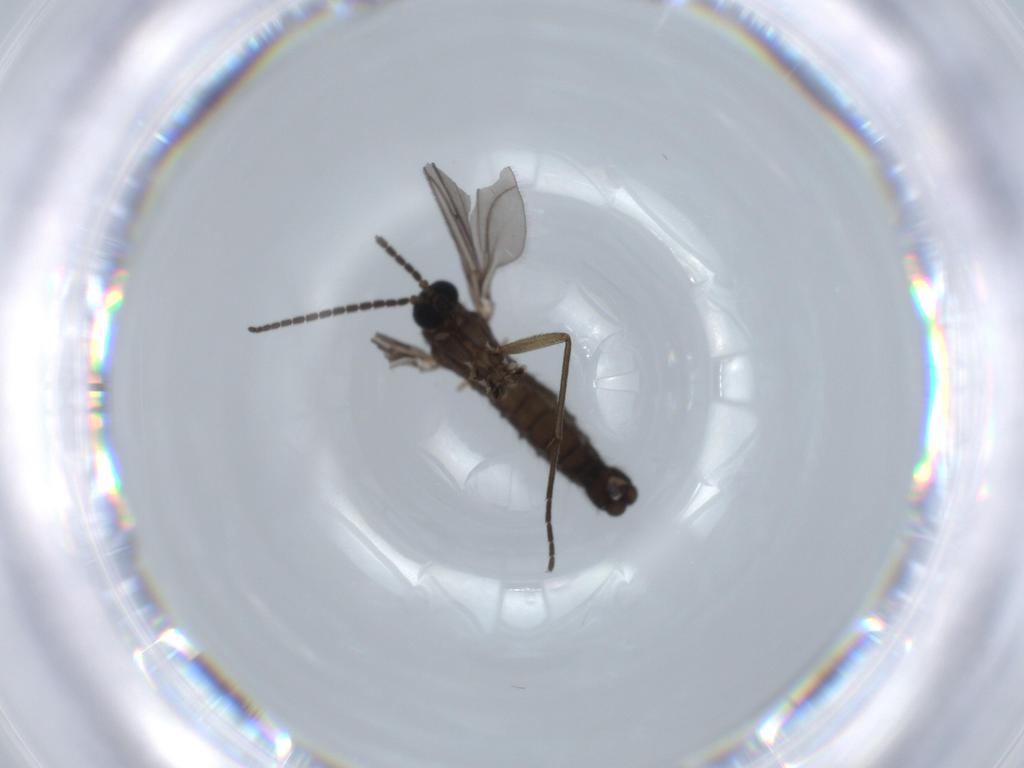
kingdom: Animalia
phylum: Arthropoda
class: Insecta
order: Diptera
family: Sciaridae
